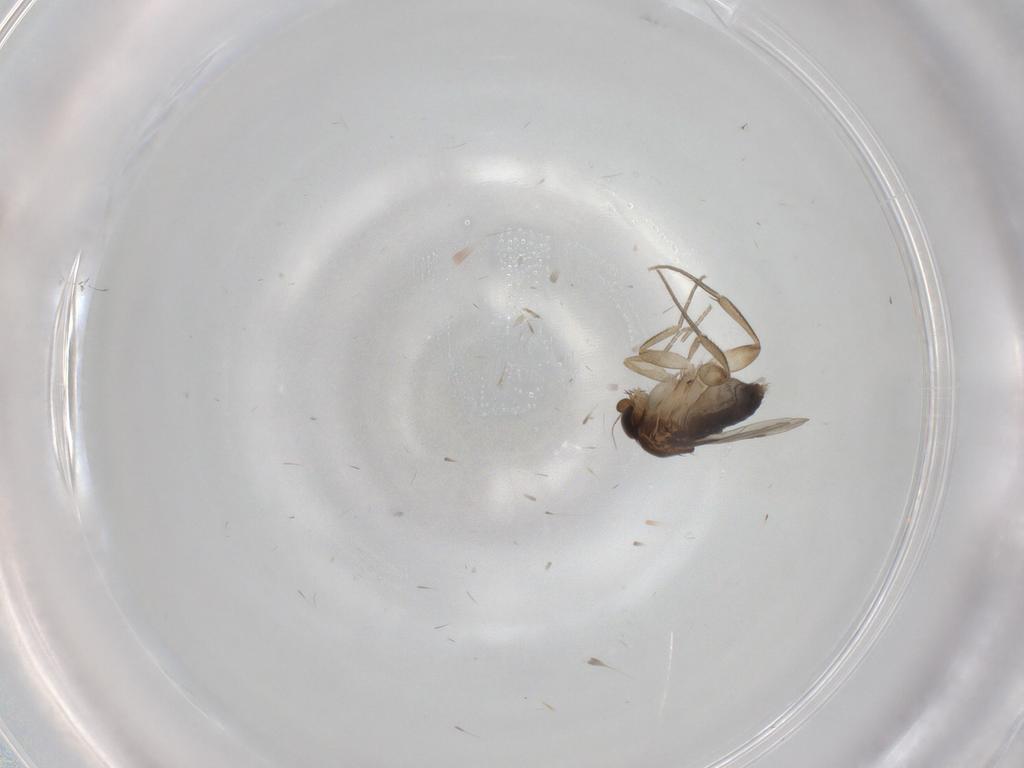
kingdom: Animalia
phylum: Arthropoda
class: Insecta
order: Diptera
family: Phoridae
